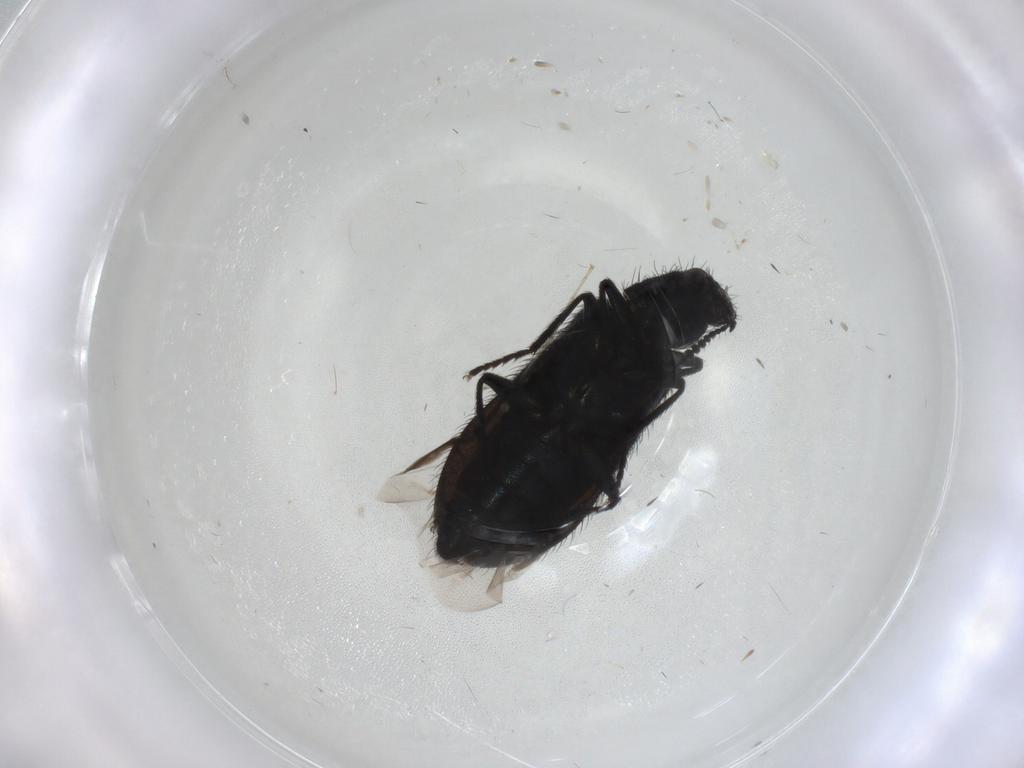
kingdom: Animalia
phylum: Arthropoda
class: Insecta
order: Coleoptera
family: Melyridae
